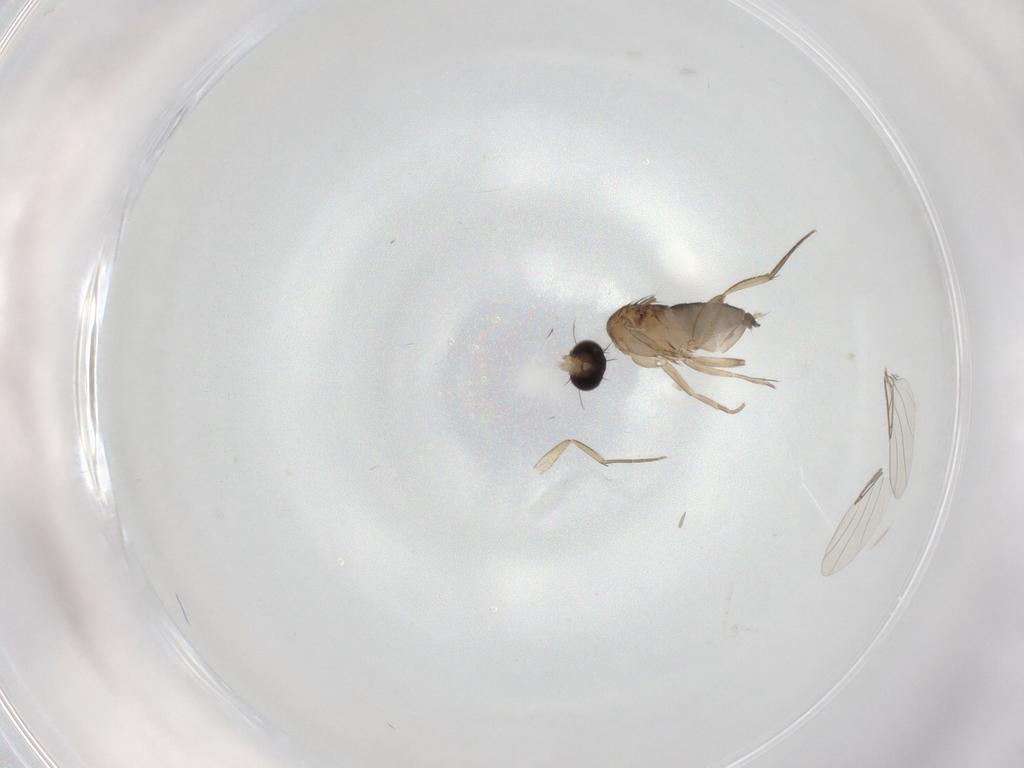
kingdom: Animalia
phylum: Arthropoda
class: Insecta
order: Diptera
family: Phoridae
